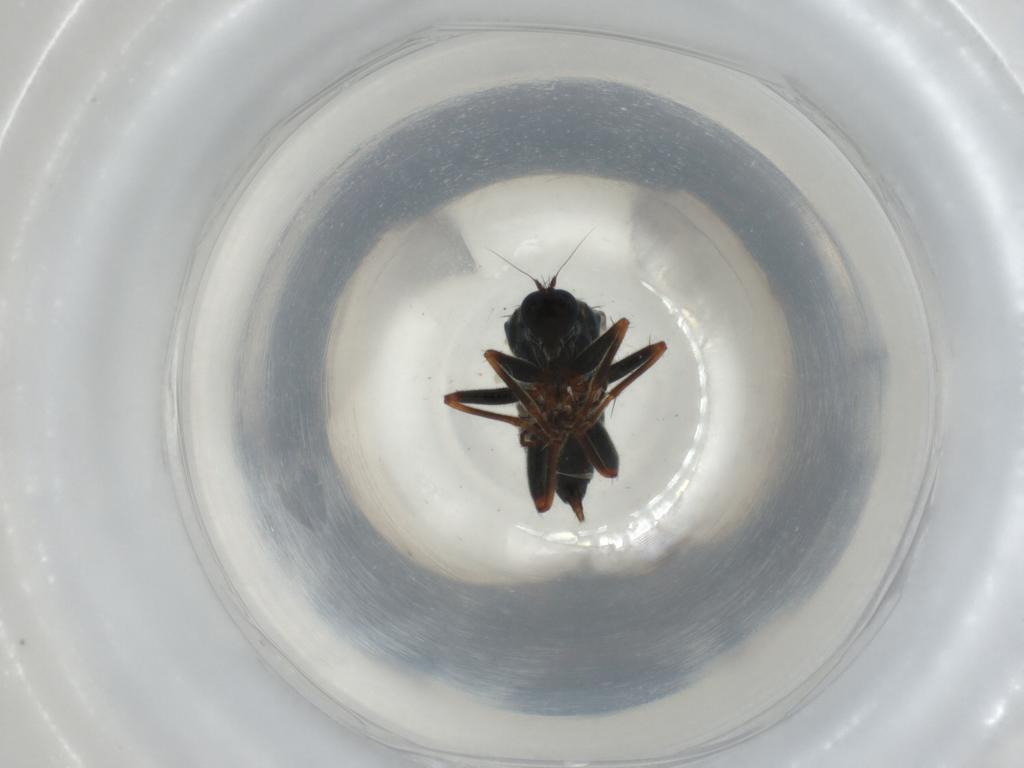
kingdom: Animalia
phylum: Arthropoda
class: Insecta
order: Diptera
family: Hybotidae
